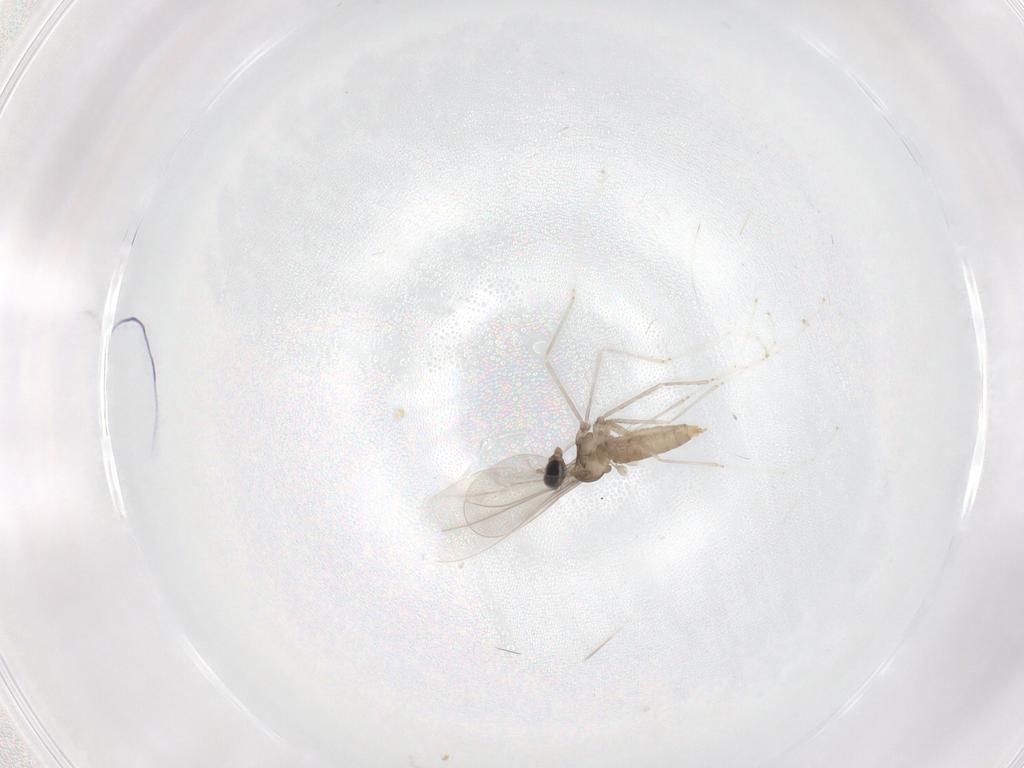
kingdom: Animalia
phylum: Arthropoda
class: Insecta
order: Diptera
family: Cecidomyiidae
